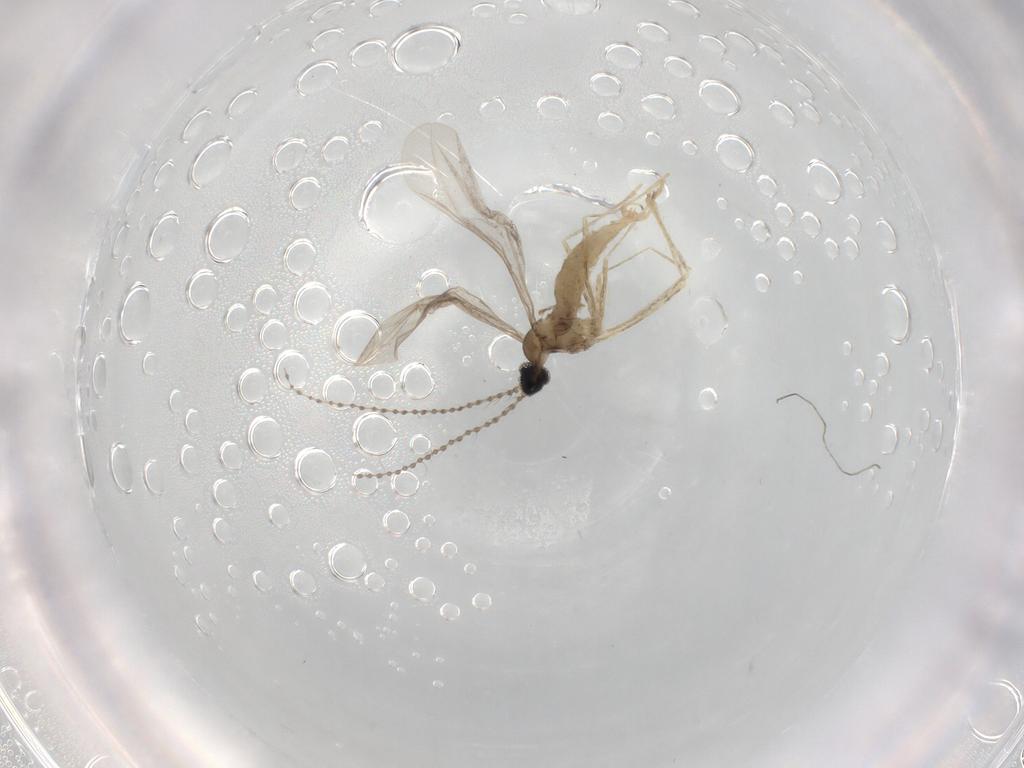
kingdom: Animalia
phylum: Arthropoda
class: Insecta
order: Diptera
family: Cecidomyiidae
